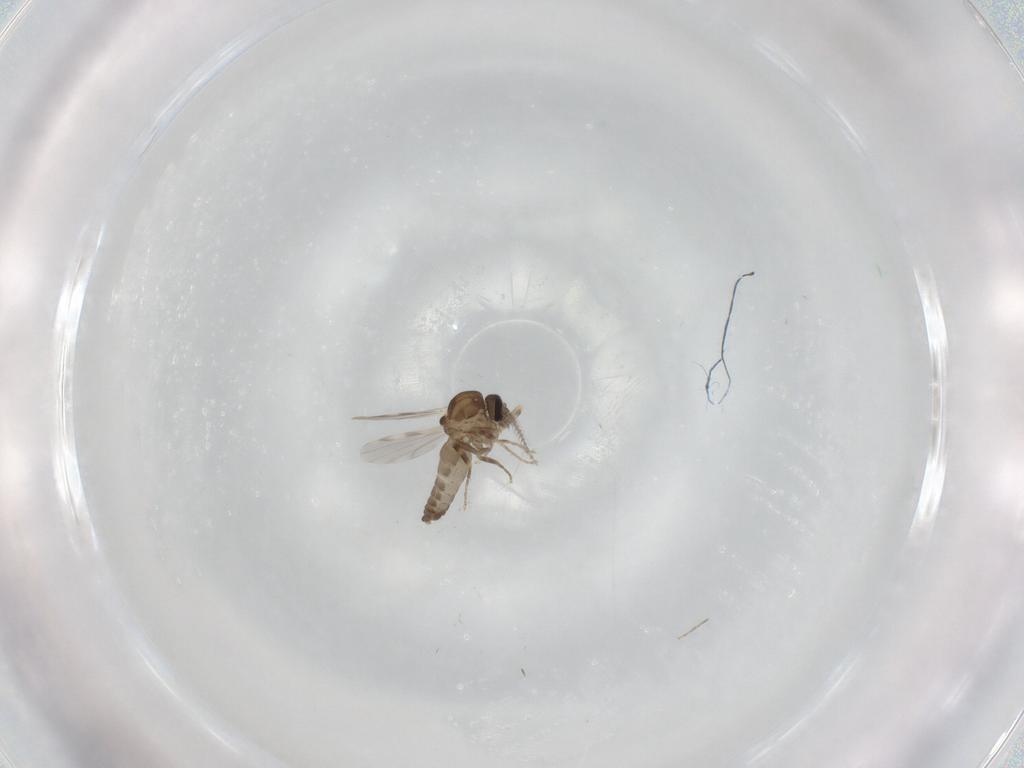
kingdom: Animalia
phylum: Arthropoda
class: Insecta
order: Diptera
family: Ceratopogonidae
